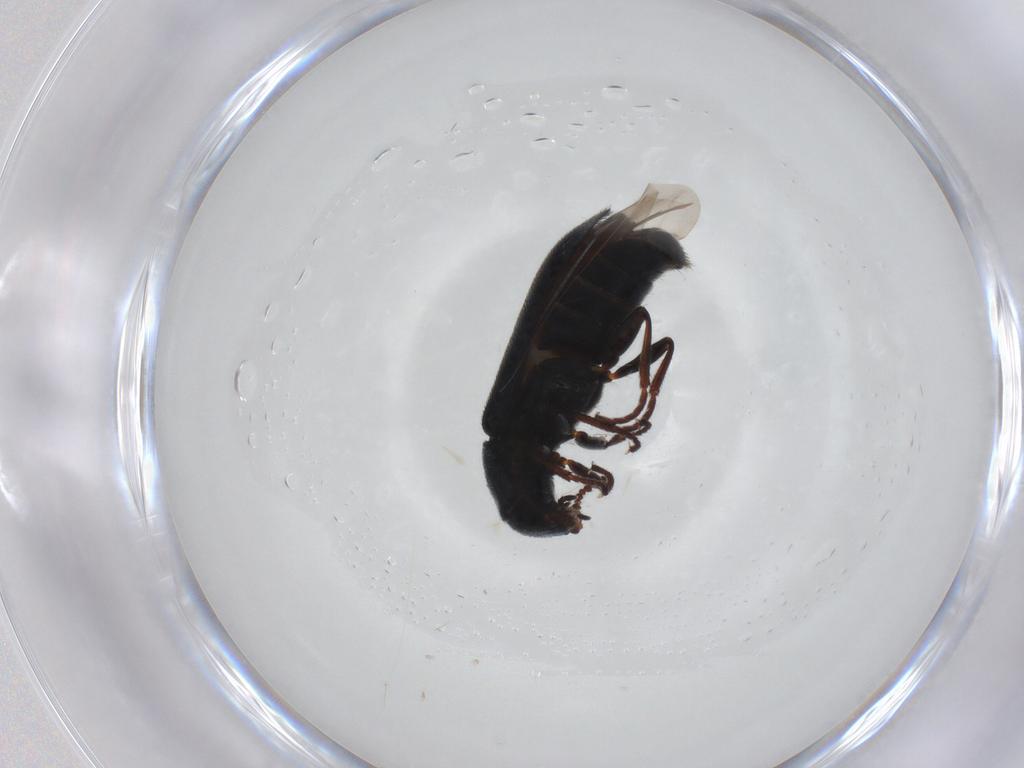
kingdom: Animalia
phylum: Arthropoda
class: Insecta
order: Coleoptera
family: Melyridae
